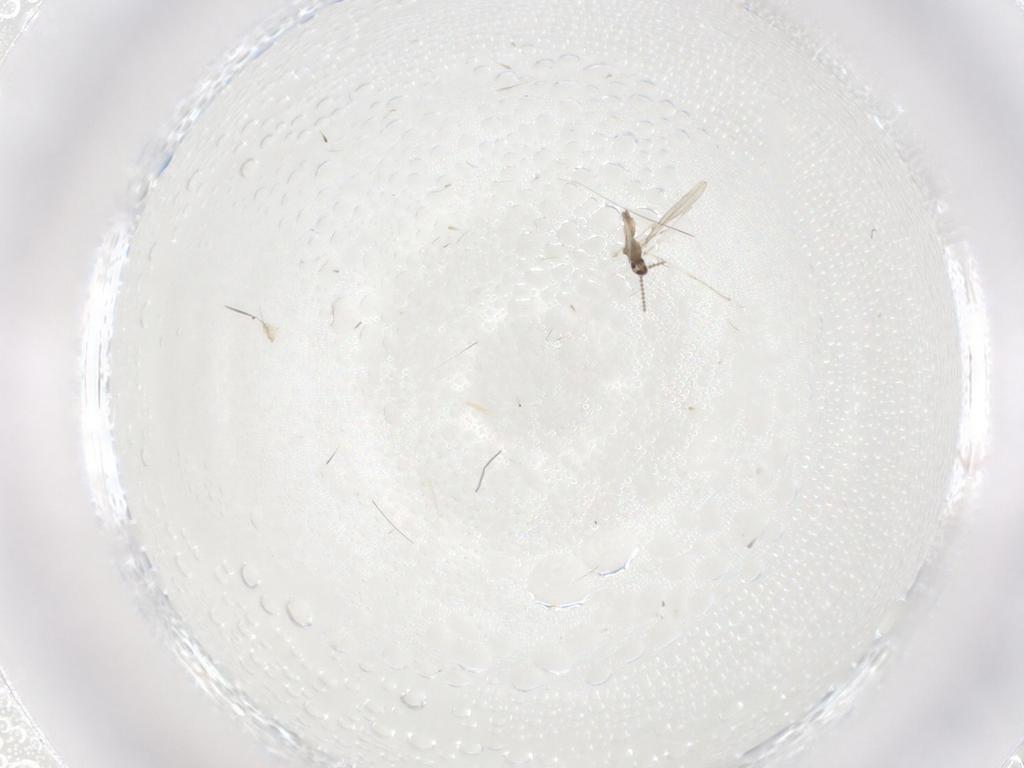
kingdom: Animalia
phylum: Arthropoda
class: Insecta
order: Diptera
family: Cecidomyiidae
